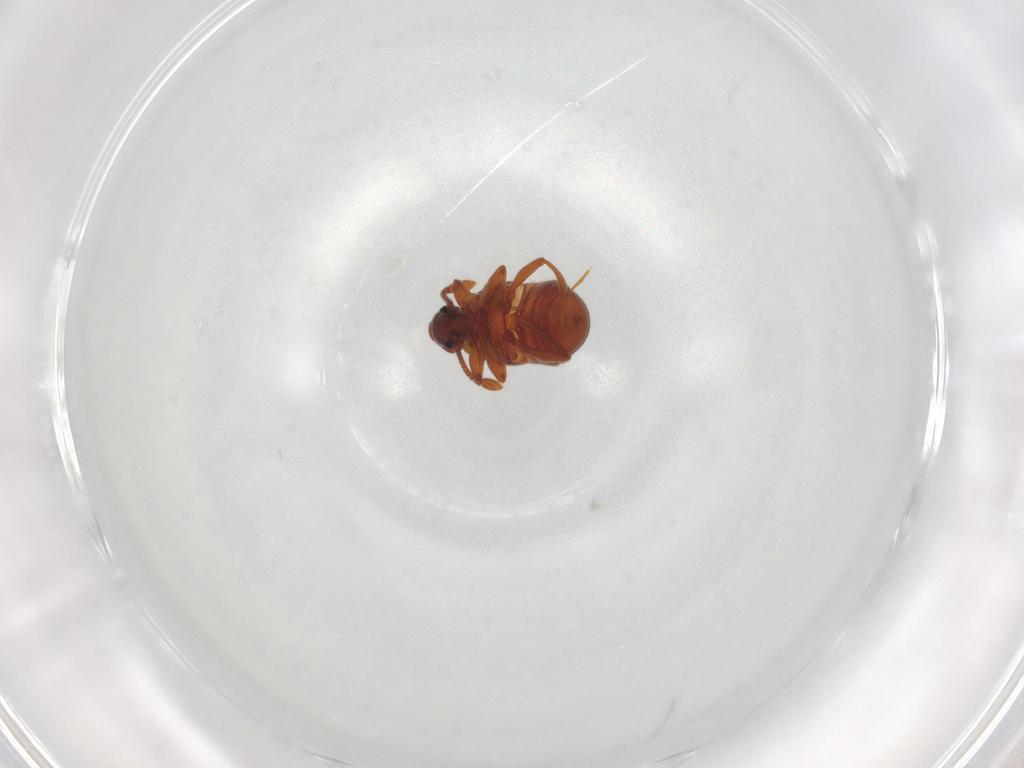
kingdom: Animalia
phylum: Arthropoda
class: Insecta
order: Coleoptera
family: Staphylinidae
